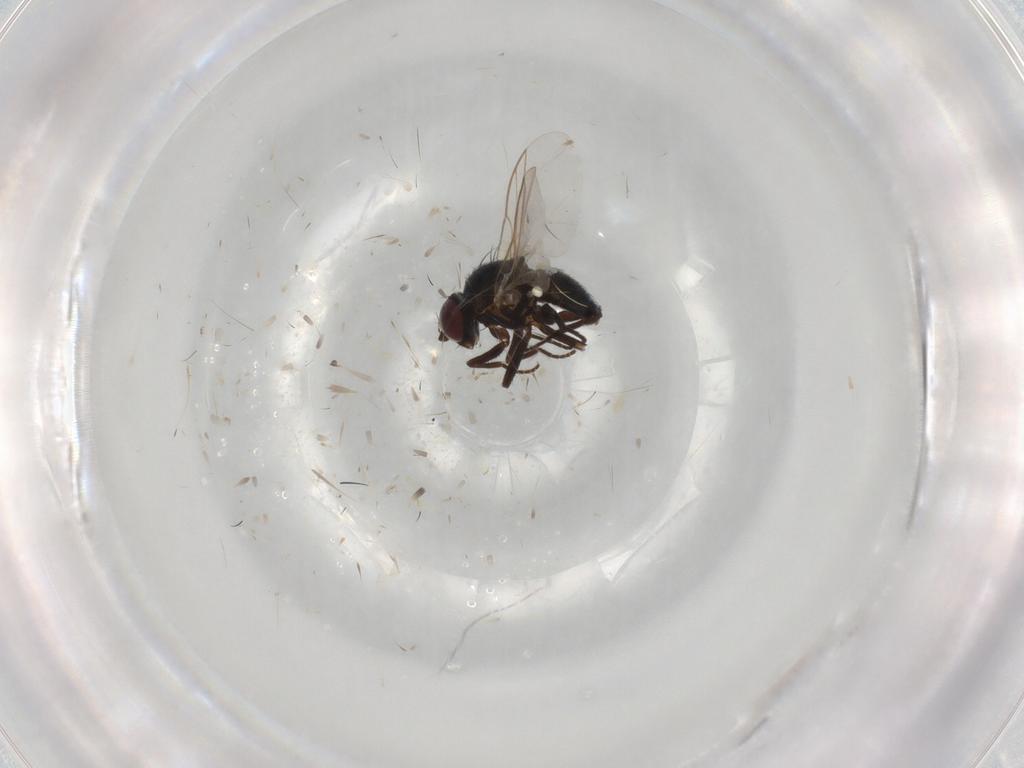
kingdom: Animalia
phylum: Arthropoda
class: Insecta
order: Diptera
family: Agromyzidae
